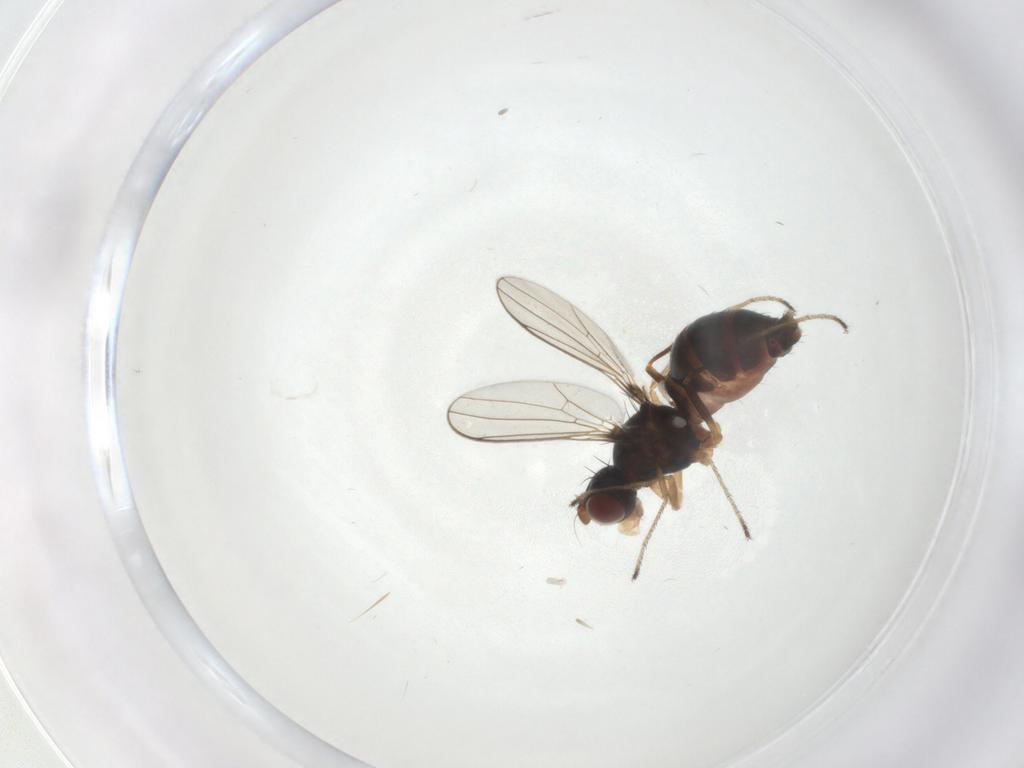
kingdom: Animalia
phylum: Arthropoda
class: Insecta
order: Diptera
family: Sepsidae
